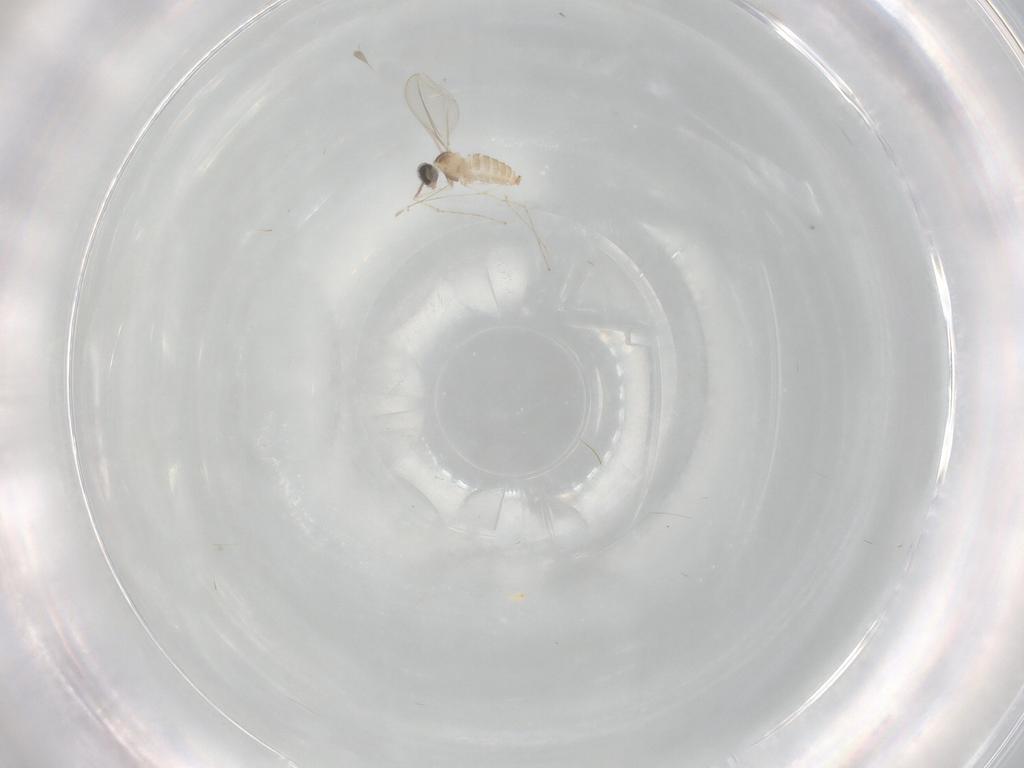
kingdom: Animalia
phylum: Arthropoda
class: Insecta
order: Diptera
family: Cecidomyiidae
